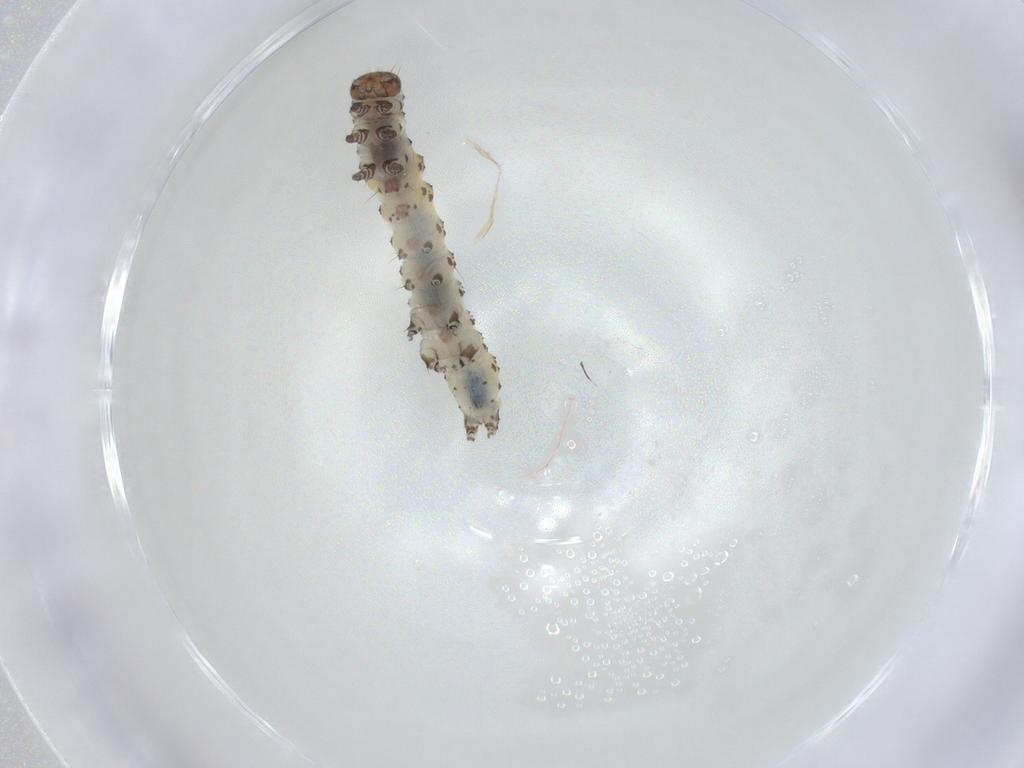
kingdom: Animalia
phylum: Arthropoda
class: Insecta
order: Lepidoptera
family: Noctuidae
